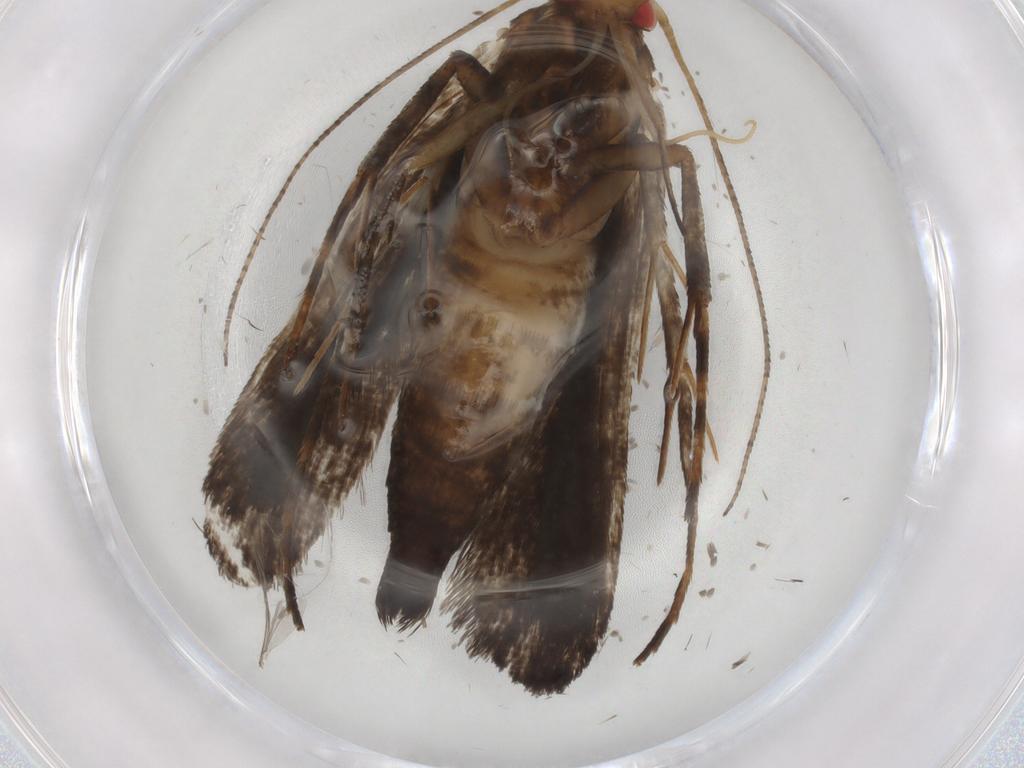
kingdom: Animalia
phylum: Arthropoda
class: Insecta
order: Lepidoptera
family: Gelechiidae
